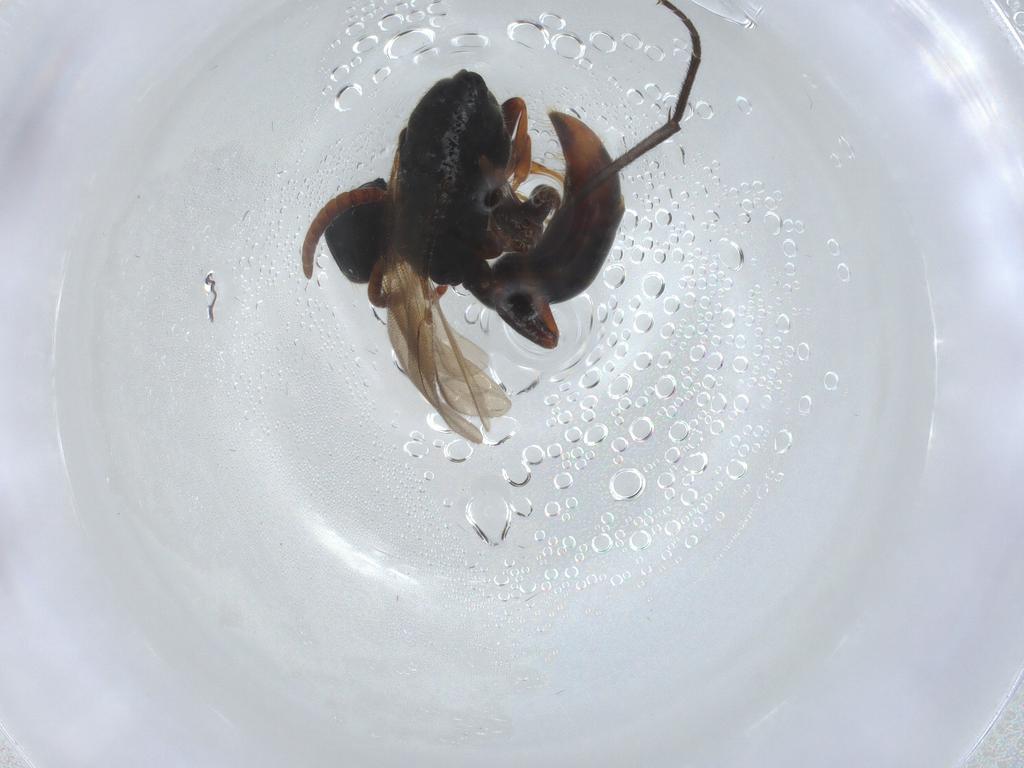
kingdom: Animalia
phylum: Arthropoda
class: Insecta
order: Hymenoptera
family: Bethylidae
